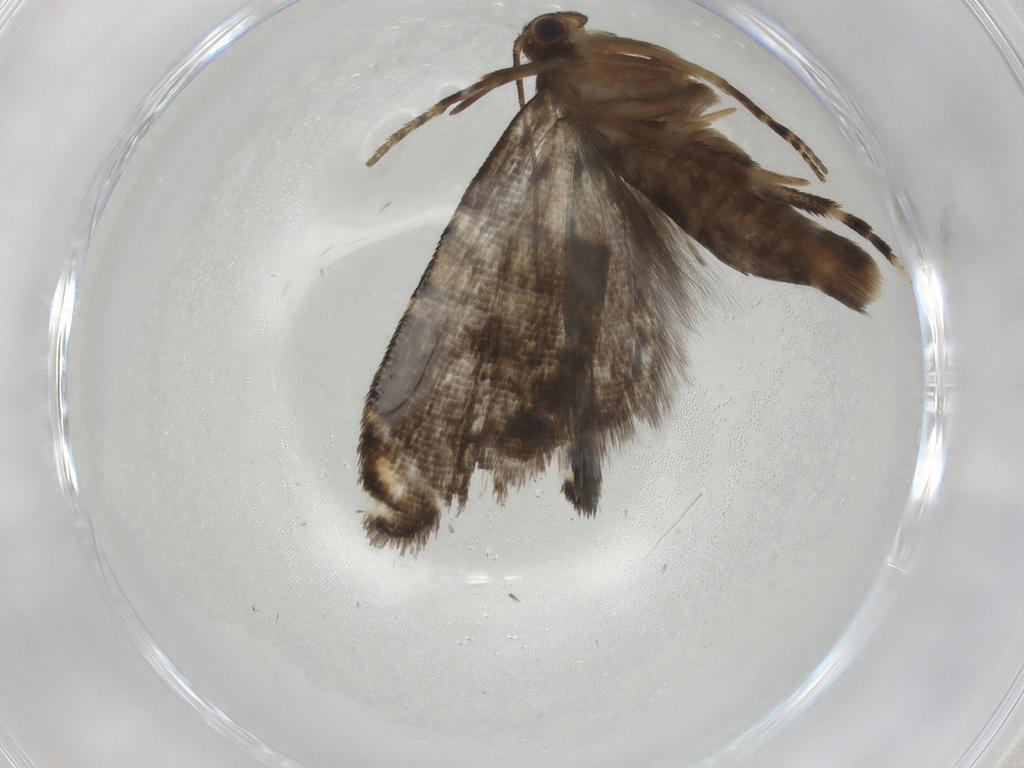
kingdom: Animalia
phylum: Arthropoda
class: Insecta
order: Lepidoptera
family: Glyphipterigidae
